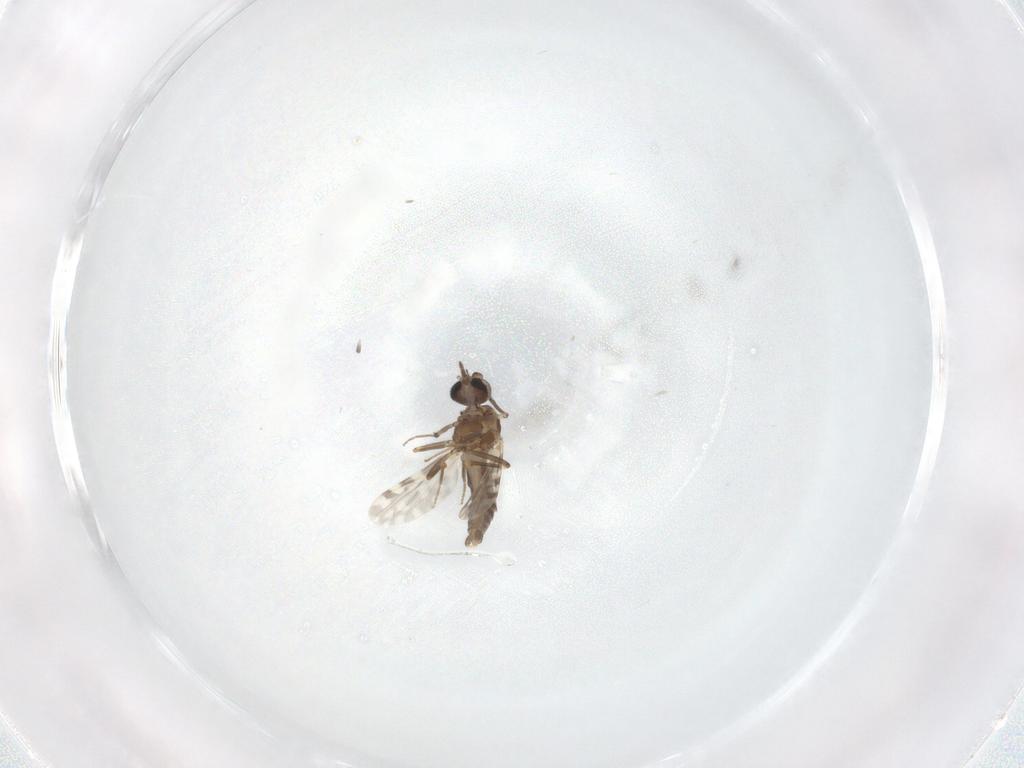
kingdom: Animalia
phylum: Arthropoda
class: Insecta
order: Diptera
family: Ceratopogonidae
